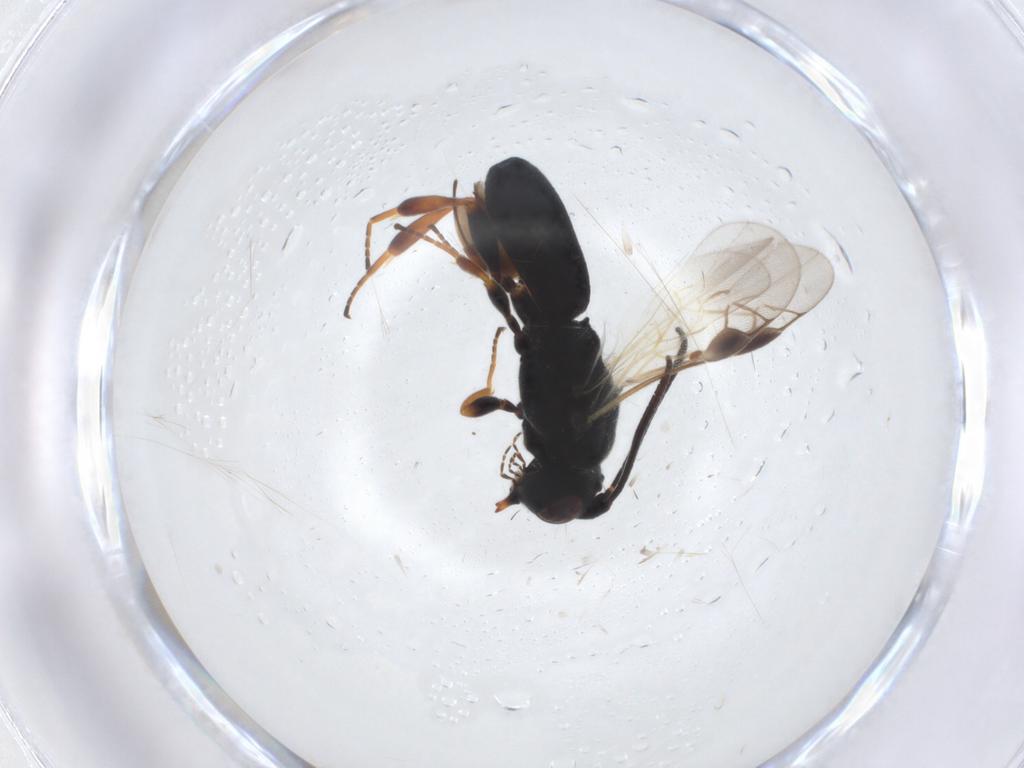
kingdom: Animalia
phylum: Arthropoda
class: Insecta
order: Hymenoptera
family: Braconidae
